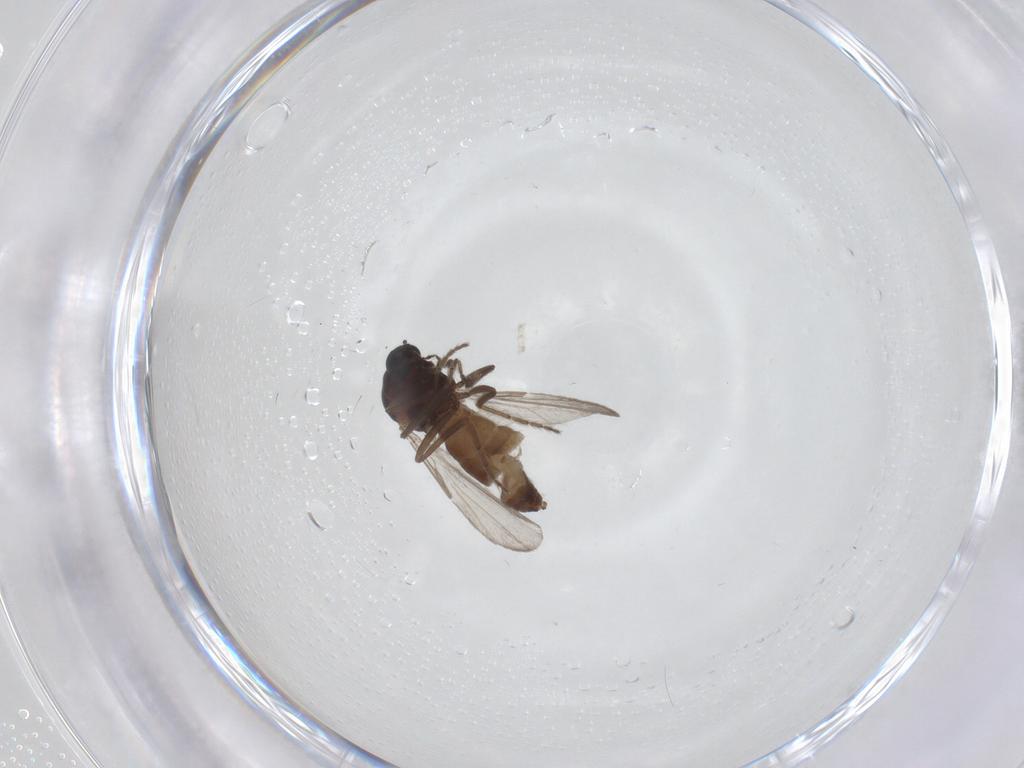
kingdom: Animalia
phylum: Arthropoda
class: Insecta
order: Diptera
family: Ceratopogonidae
